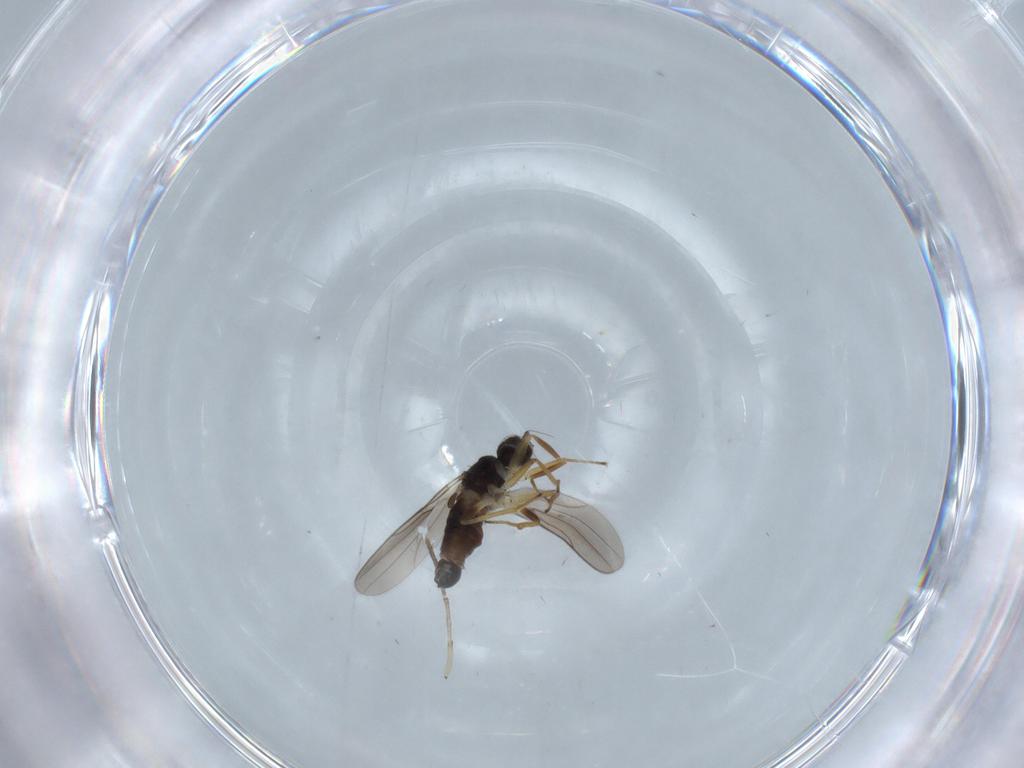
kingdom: Animalia
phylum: Arthropoda
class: Insecta
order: Diptera
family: Hybotidae
